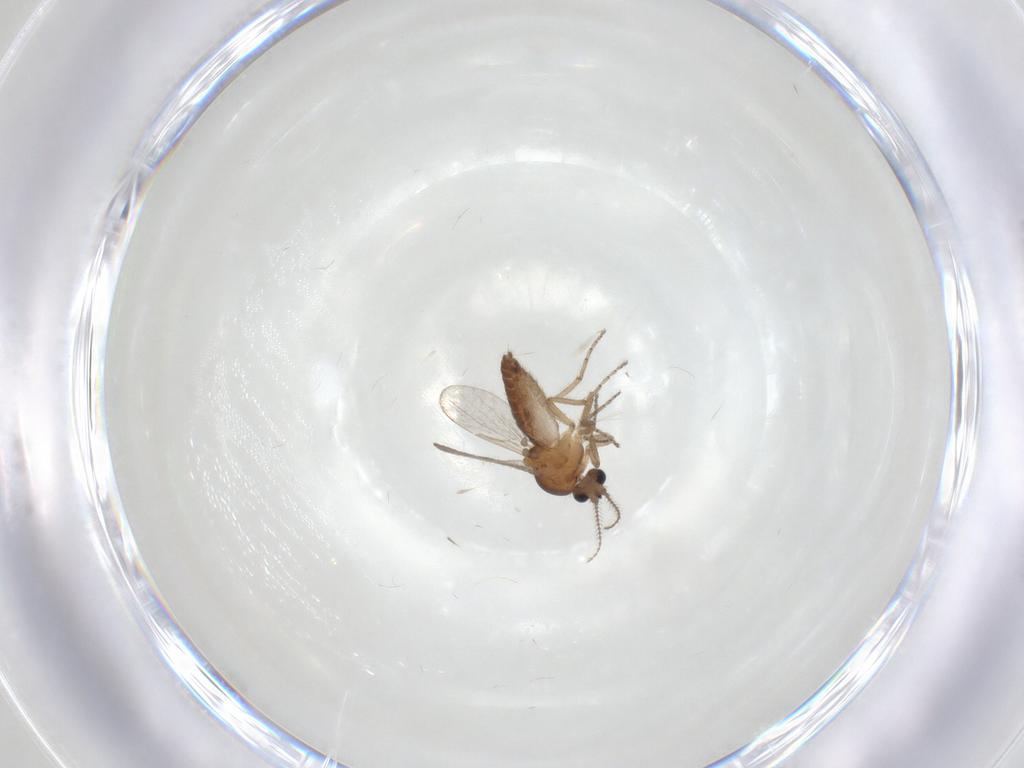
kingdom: Animalia
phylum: Arthropoda
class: Insecta
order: Diptera
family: Ceratopogonidae
